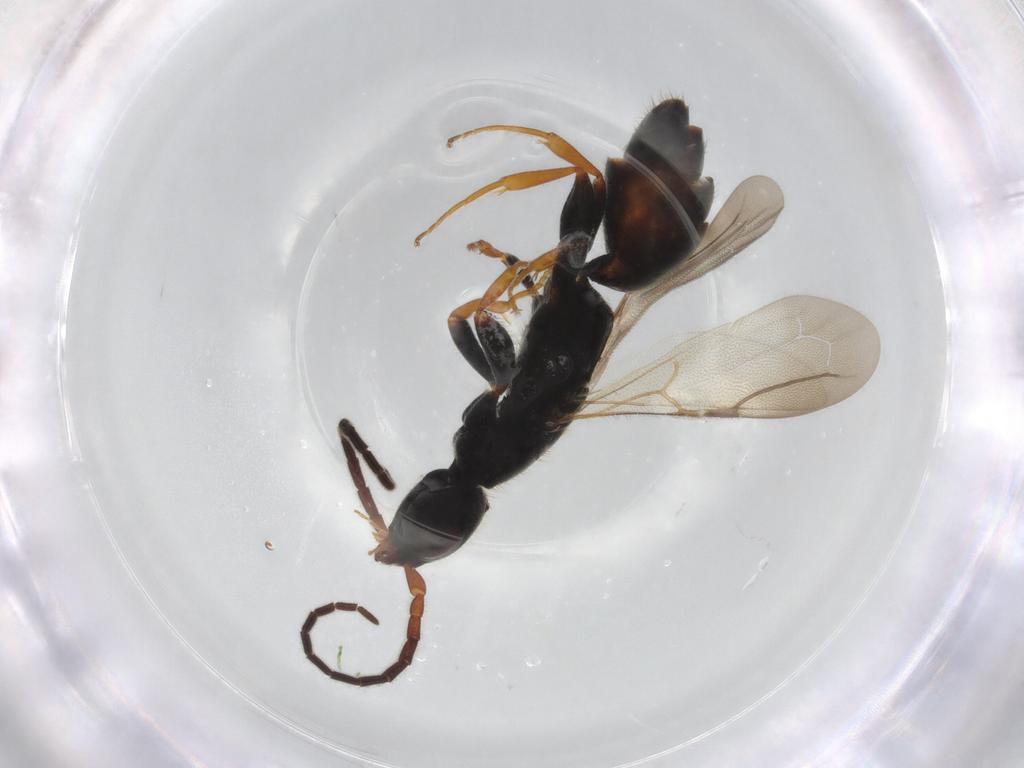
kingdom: Animalia
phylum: Arthropoda
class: Insecta
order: Hymenoptera
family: Bethylidae
